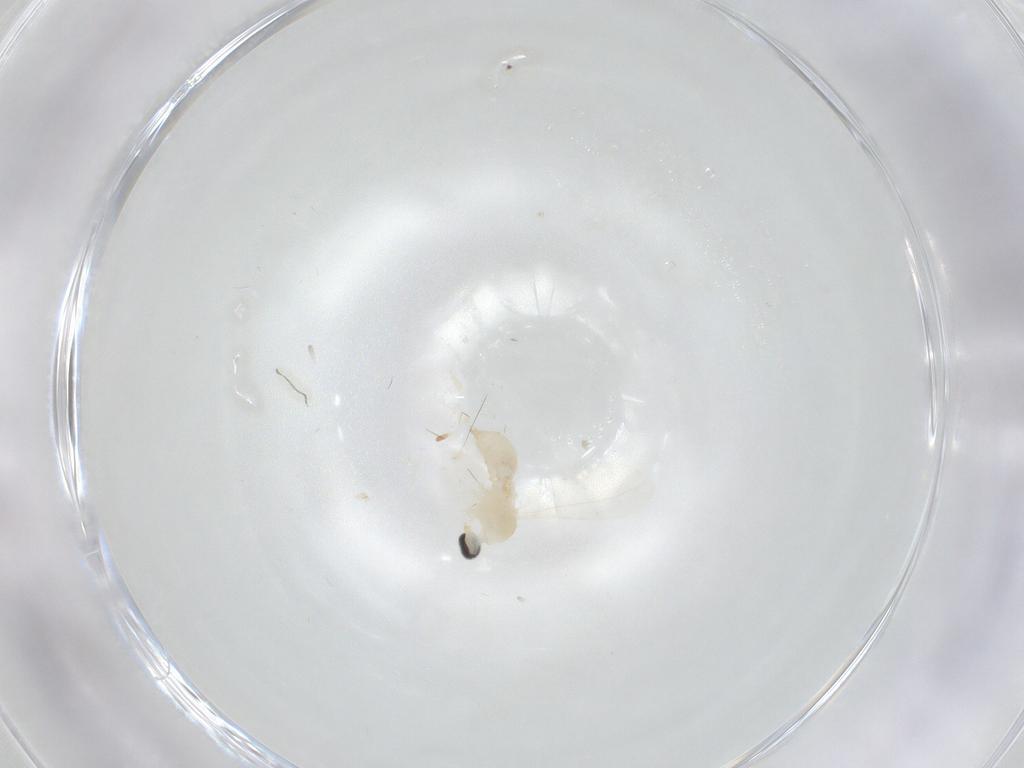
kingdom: Animalia
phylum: Arthropoda
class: Insecta
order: Diptera
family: Cecidomyiidae
